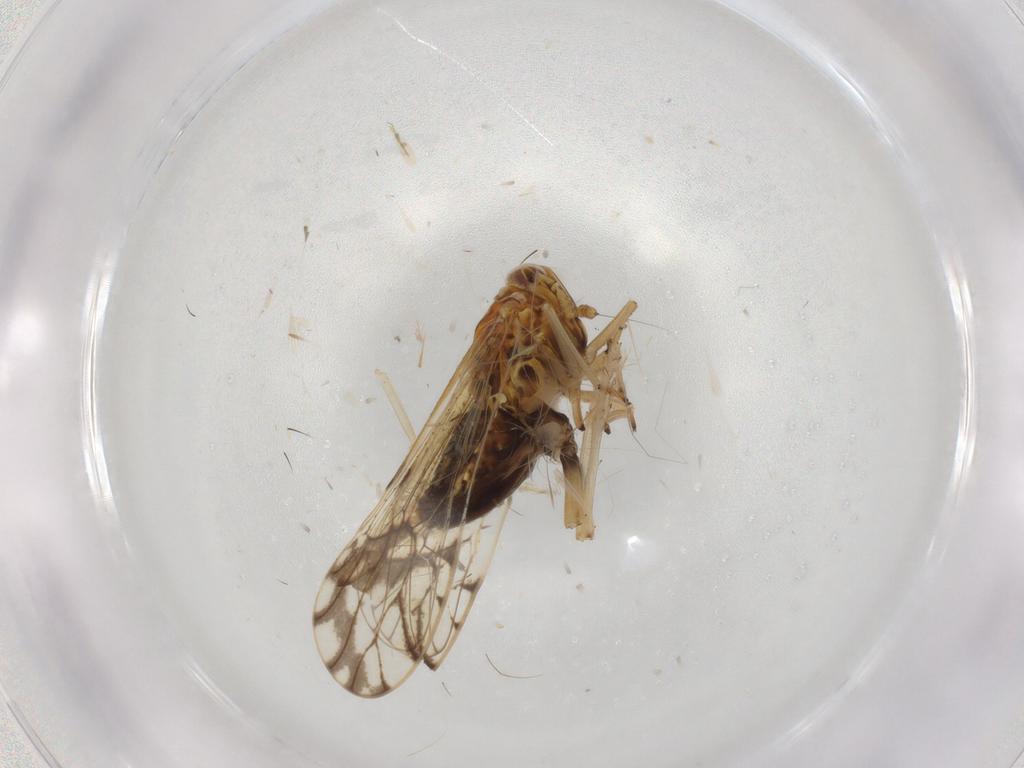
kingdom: Animalia
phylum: Arthropoda
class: Insecta
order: Hemiptera
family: Delphacidae
